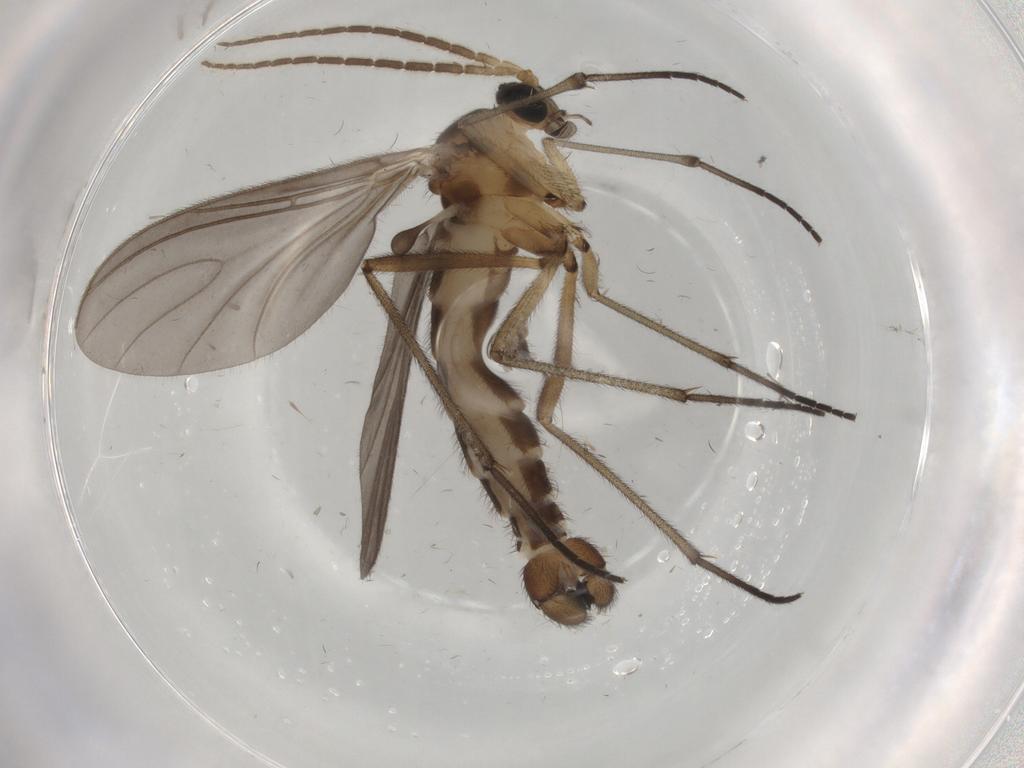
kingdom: Animalia
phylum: Arthropoda
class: Insecta
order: Diptera
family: Sciaridae
